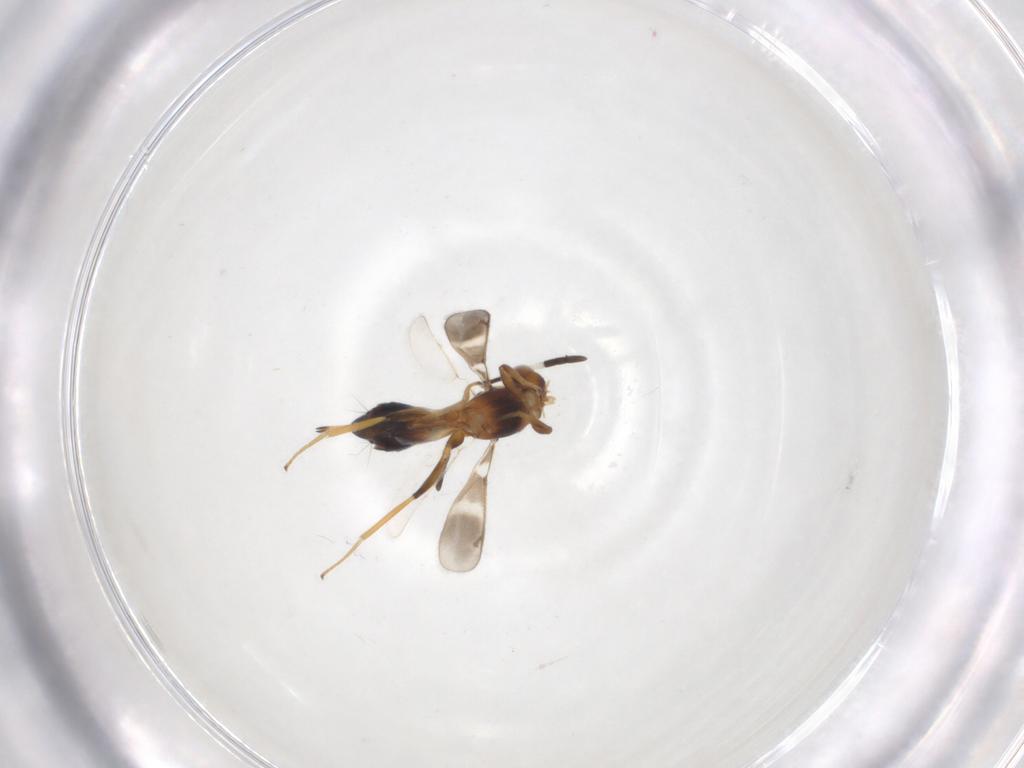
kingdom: Animalia
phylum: Arthropoda
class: Insecta
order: Hymenoptera
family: Eupelmidae
